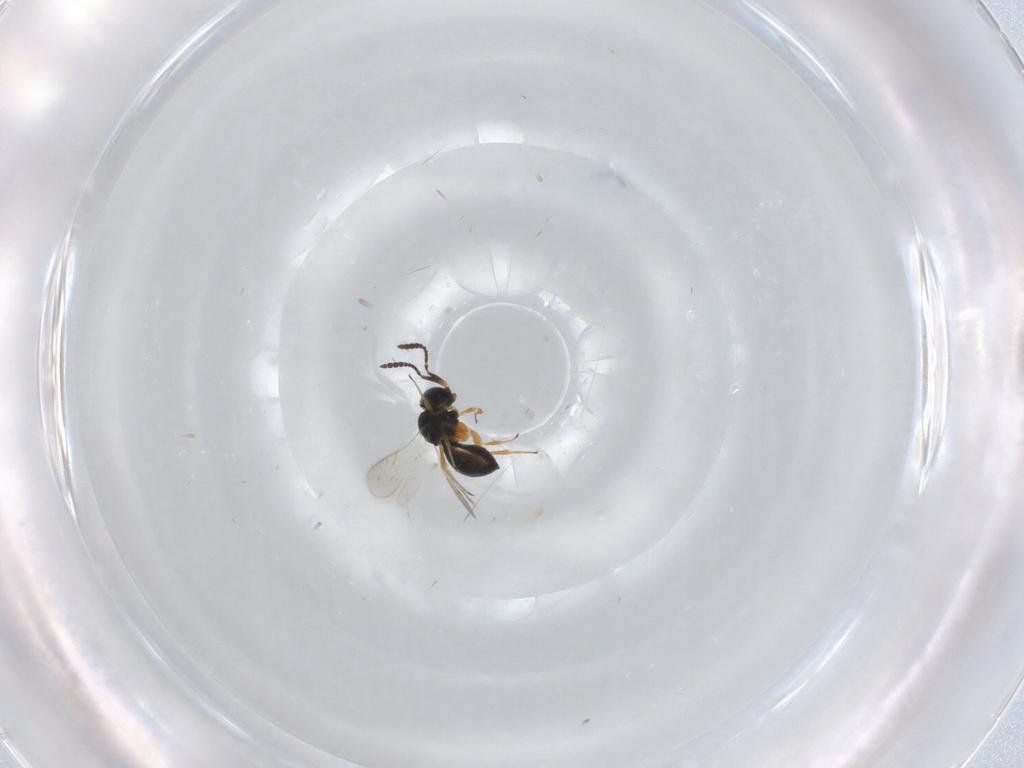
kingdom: Animalia
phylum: Arthropoda
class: Insecta
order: Hymenoptera
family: Scelionidae
